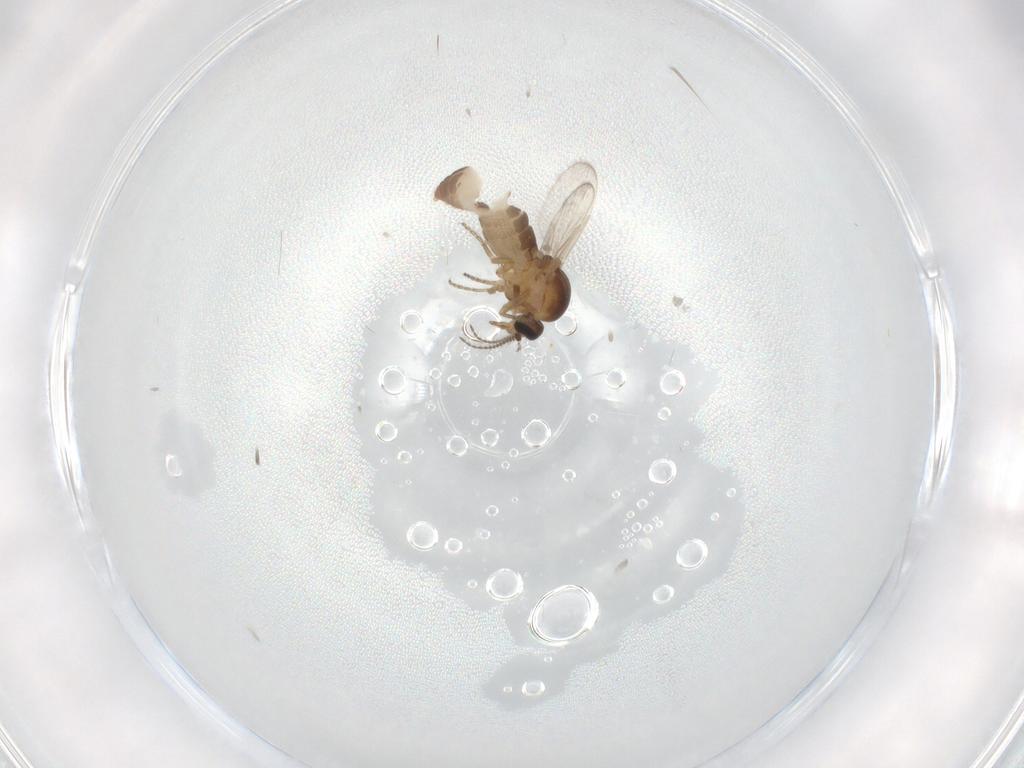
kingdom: Animalia
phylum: Arthropoda
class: Insecta
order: Diptera
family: Ceratopogonidae
